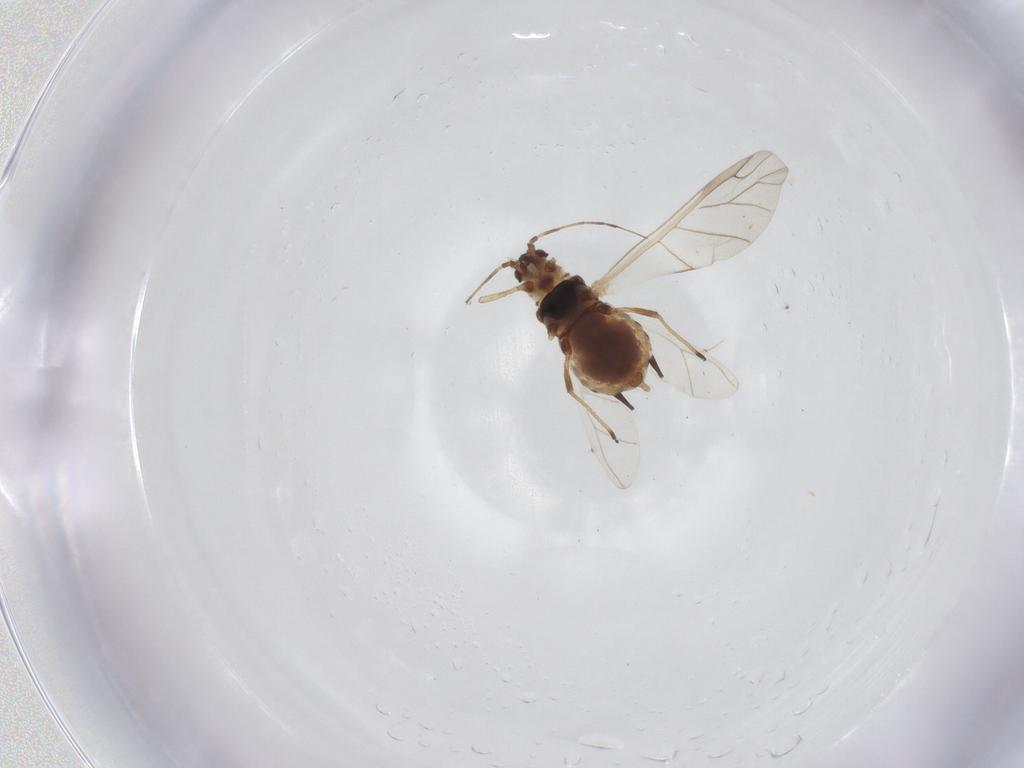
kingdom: Animalia
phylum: Arthropoda
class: Insecta
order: Hemiptera
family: Aphididae
